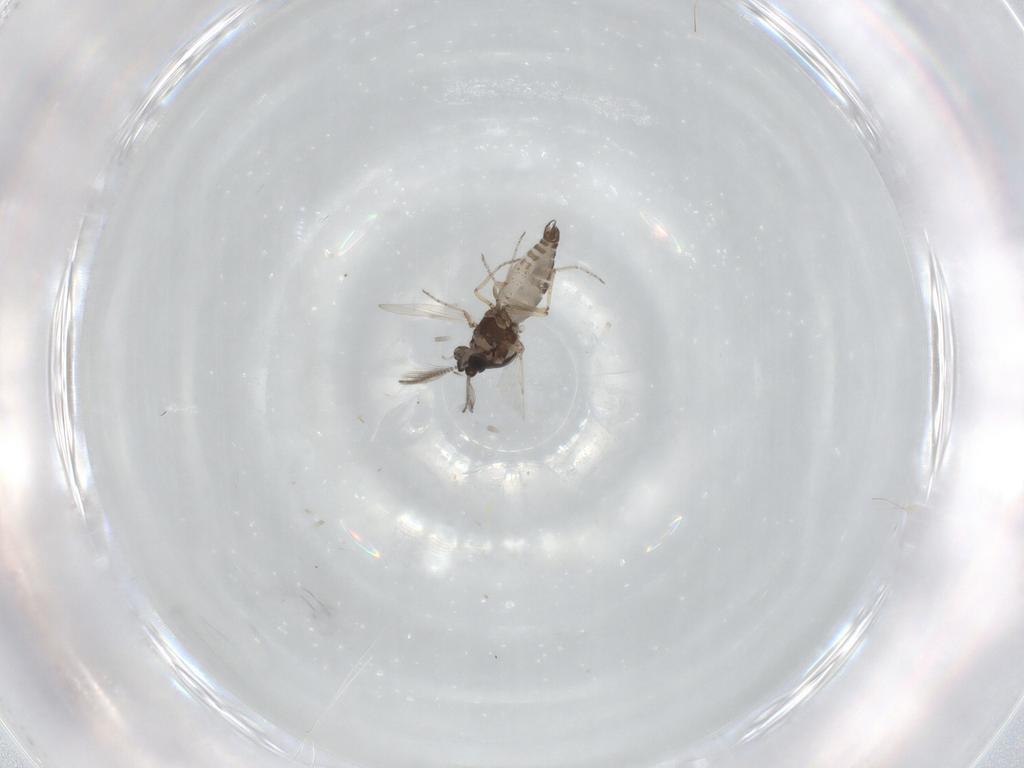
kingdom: Animalia
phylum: Arthropoda
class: Insecta
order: Diptera
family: Ceratopogonidae
